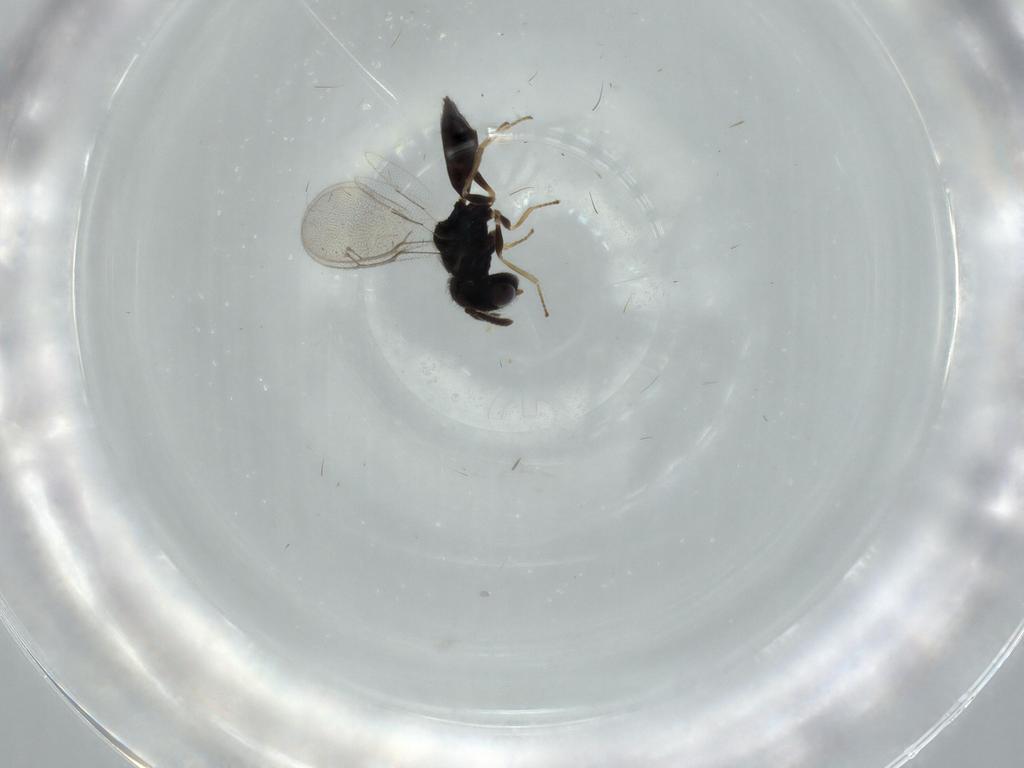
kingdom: Animalia
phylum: Arthropoda
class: Insecta
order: Hymenoptera
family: Pteromalidae
